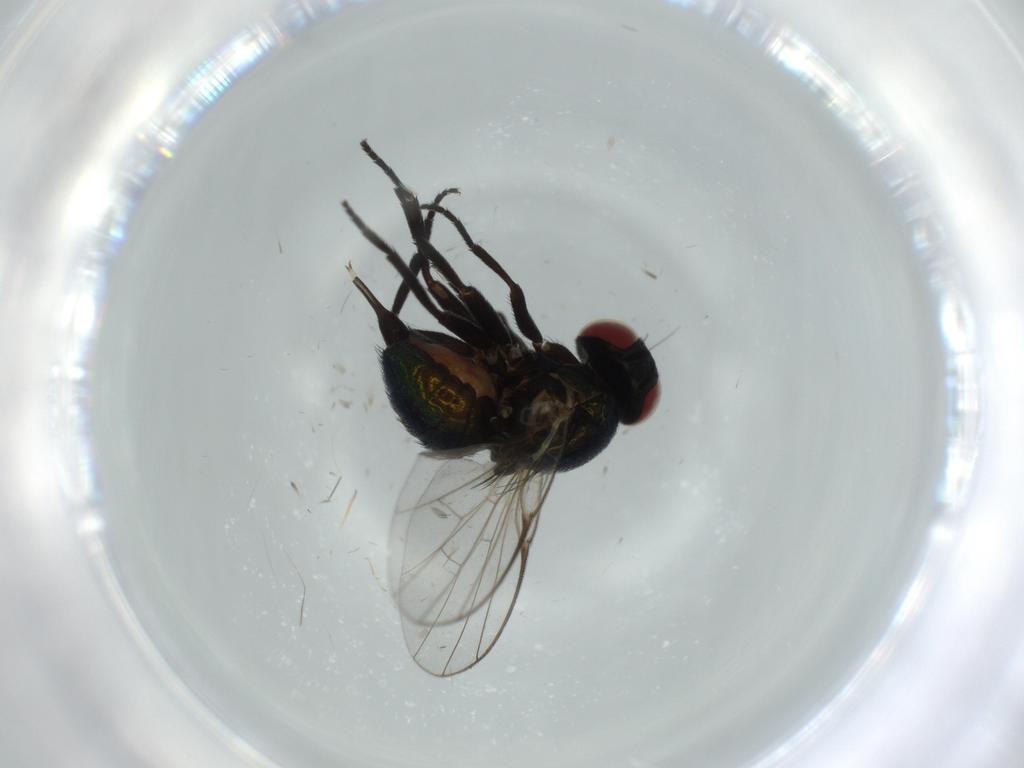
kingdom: Animalia
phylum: Arthropoda
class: Insecta
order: Diptera
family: Agromyzidae
